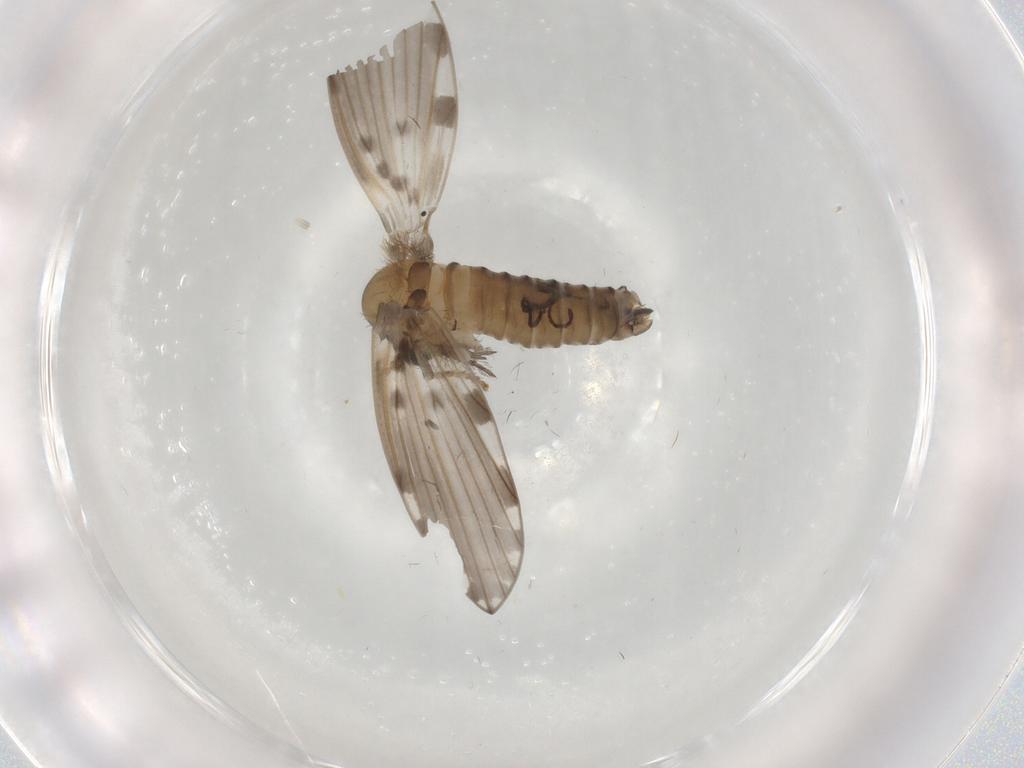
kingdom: Animalia
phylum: Arthropoda
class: Insecta
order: Diptera
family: Psychodidae
